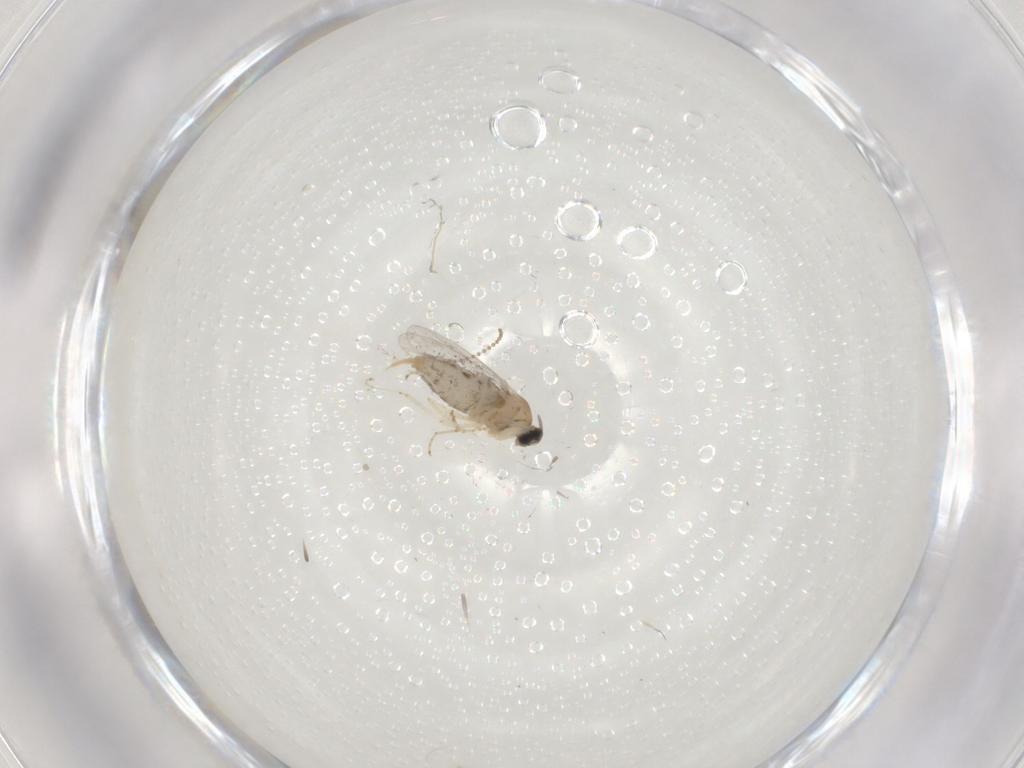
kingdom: Animalia
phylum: Arthropoda
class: Insecta
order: Diptera
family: Cecidomyiidae
